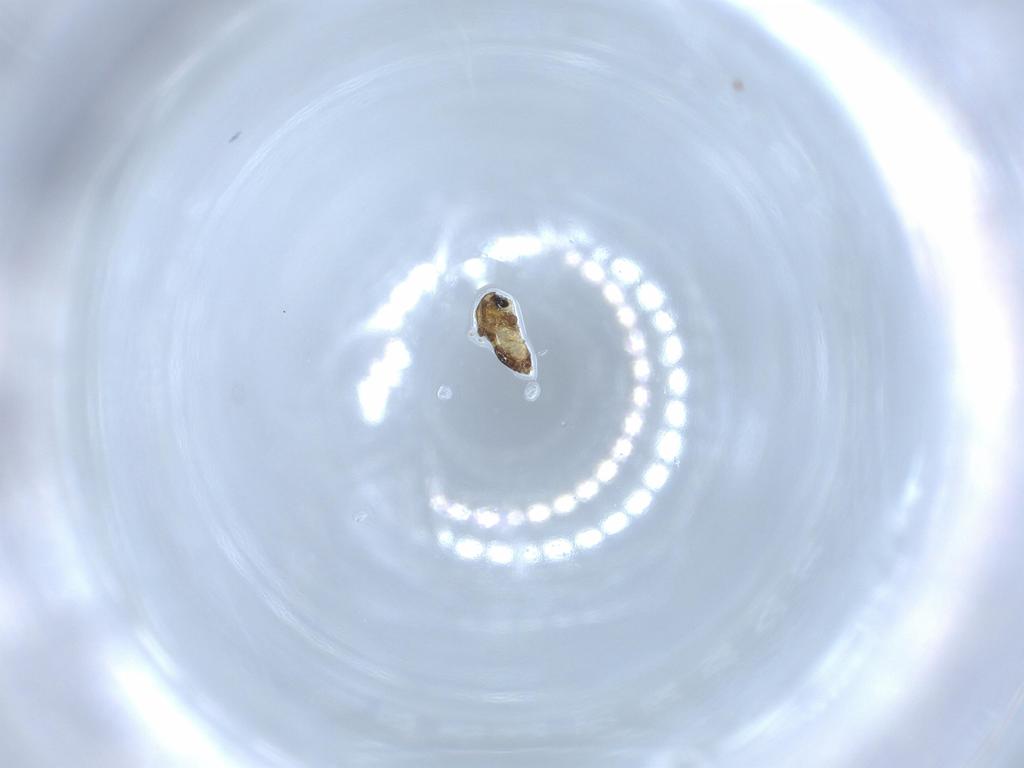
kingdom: Animalia
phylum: Arthropoda
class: Insecta
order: Diptera
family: Chironomidae
